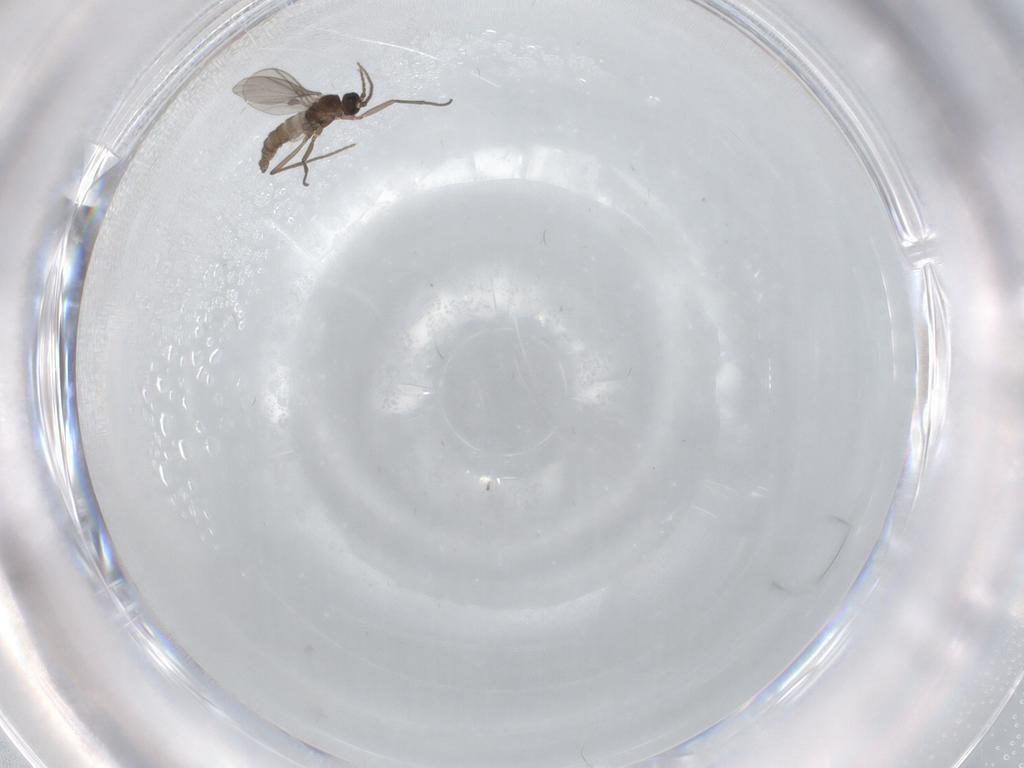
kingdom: Animalia
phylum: Arthropoda
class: Insecta
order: Diptera
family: Sciaridae
